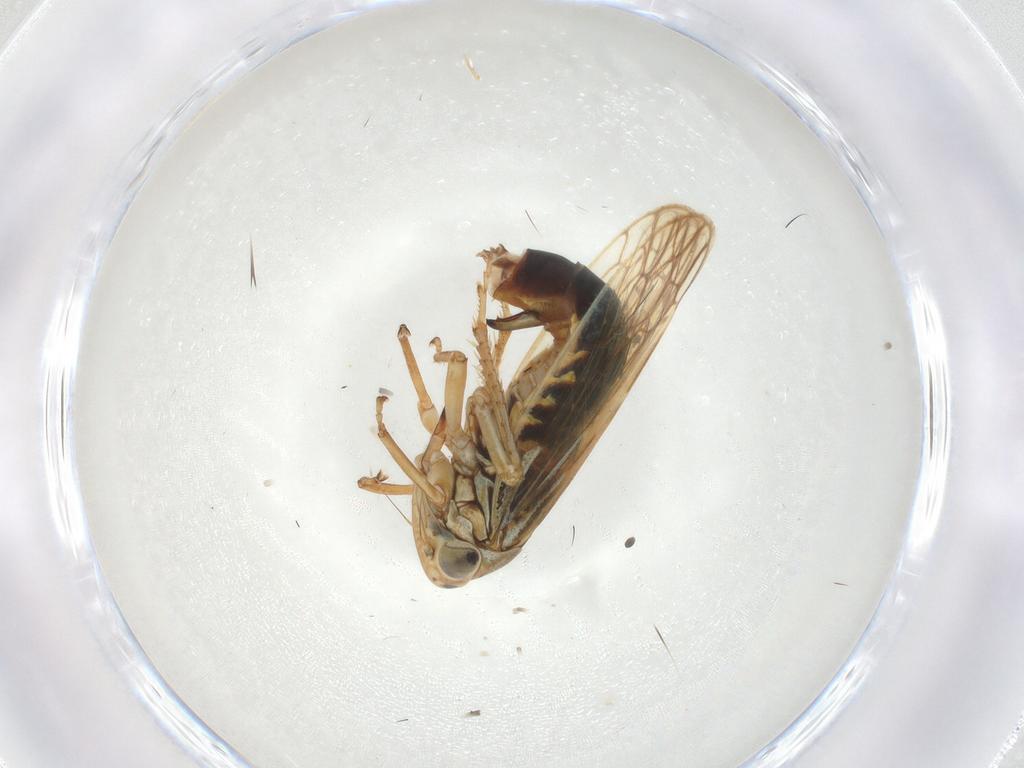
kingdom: Animalia
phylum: Arthropoda
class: Insecta
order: Hemiptera
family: Cicadellidae
